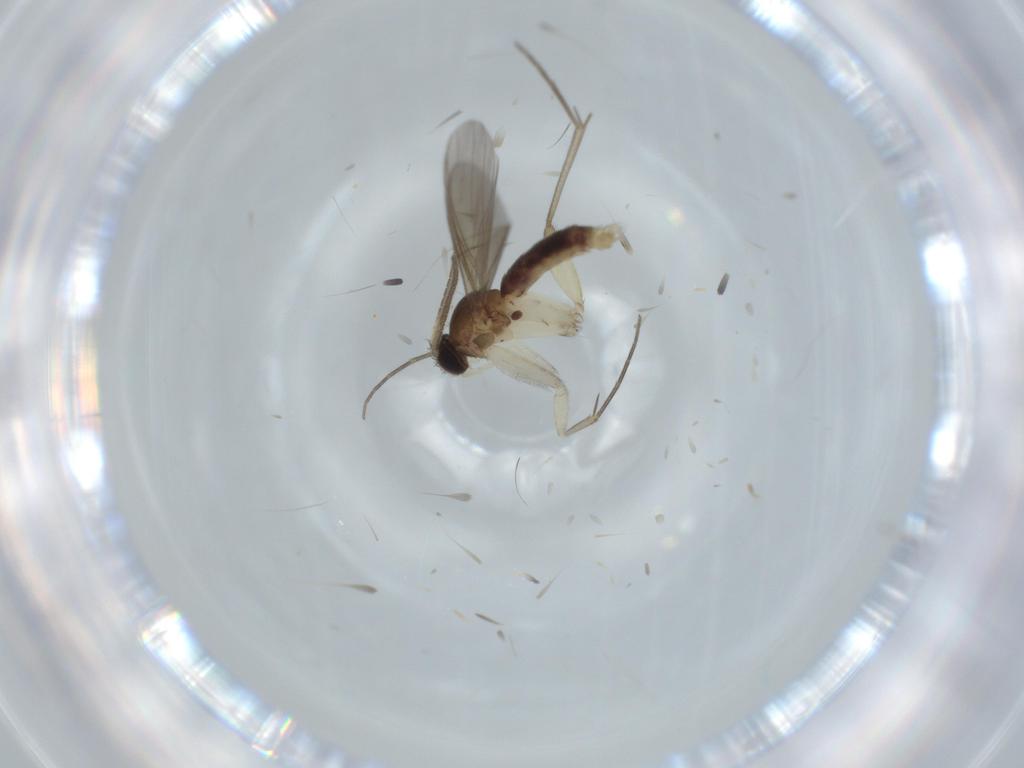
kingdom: Animalia
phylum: Arthropoda
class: Insecta
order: Diptera
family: Mycetophilidae
